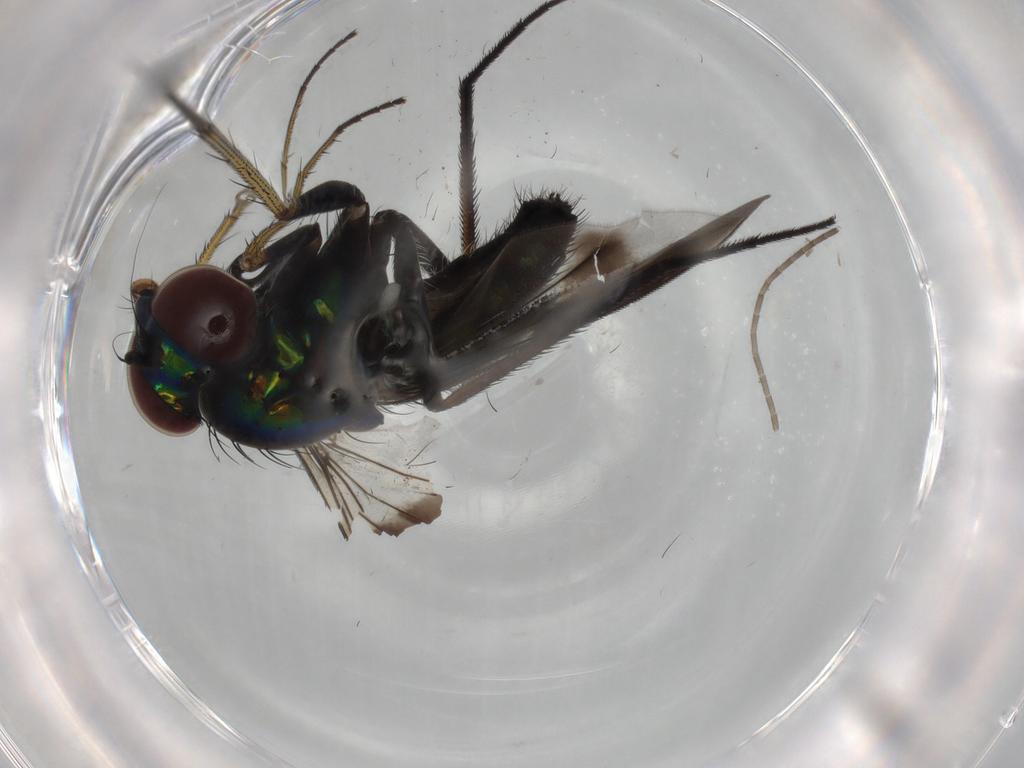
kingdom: Animalia
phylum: Arthropoda
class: Insecta
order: Diptera
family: Dolichopodidae
